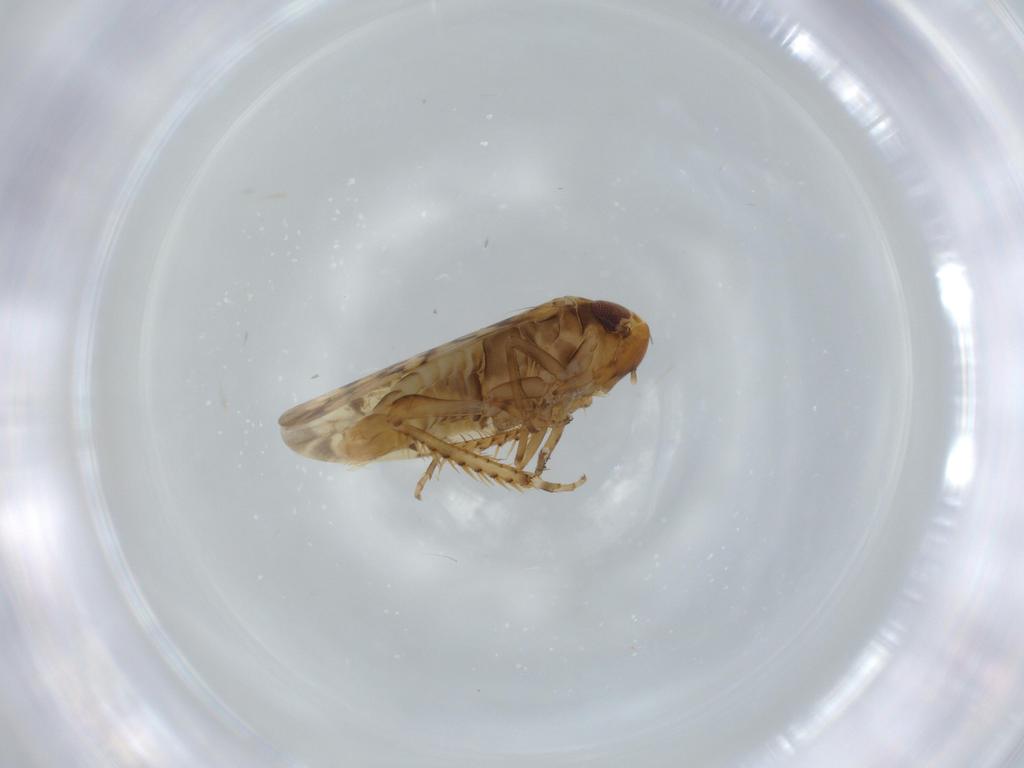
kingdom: Animalia
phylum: Arthropoda
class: Insecta
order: Hemiptera
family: Cicadellidae
